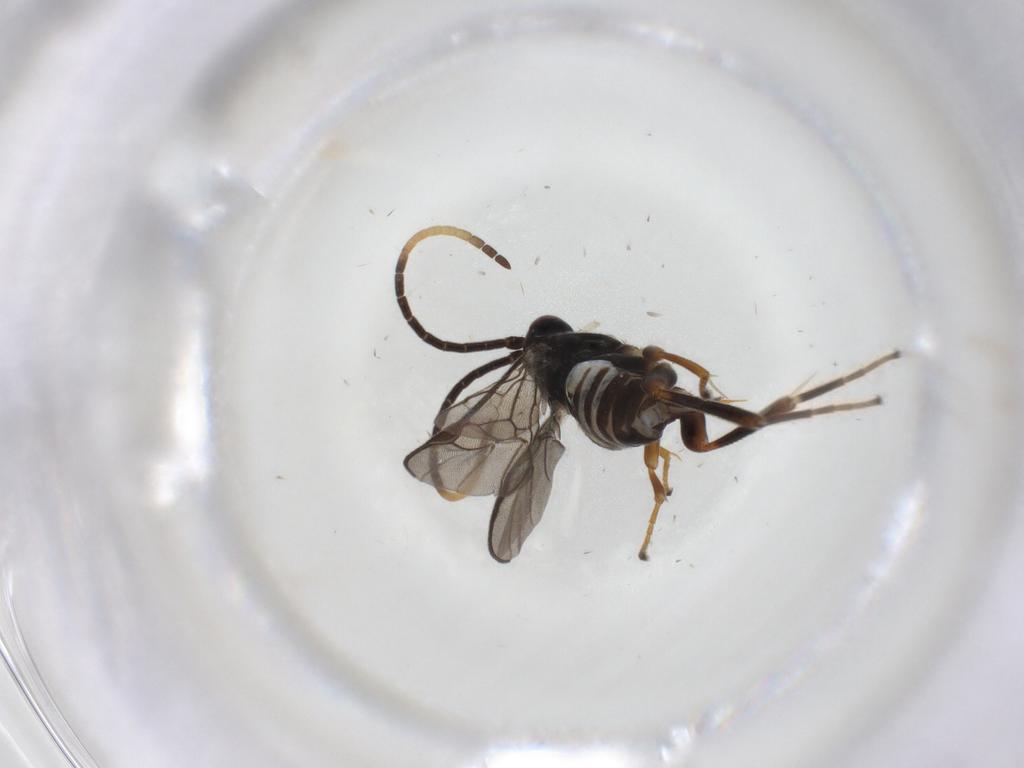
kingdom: Animalia
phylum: Arthropoda
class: Insecta
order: Hymenoptera
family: Braconidae
